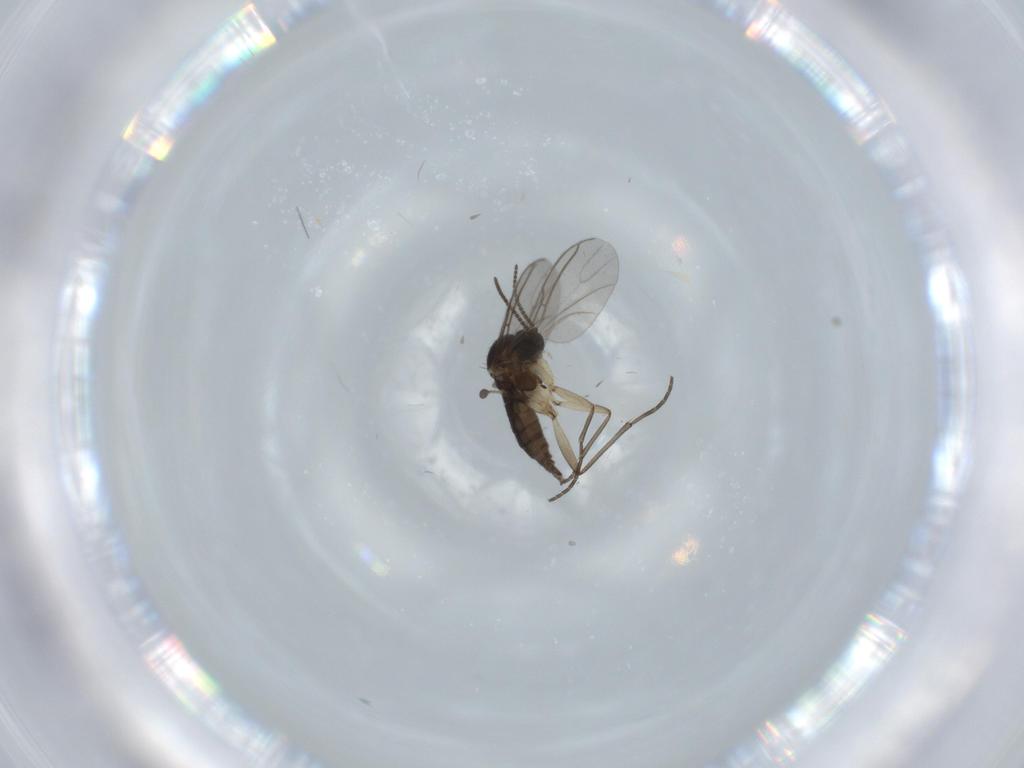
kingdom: Animalia
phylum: Arthropoda
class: Insecta
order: Diptera
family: Sciaridae
